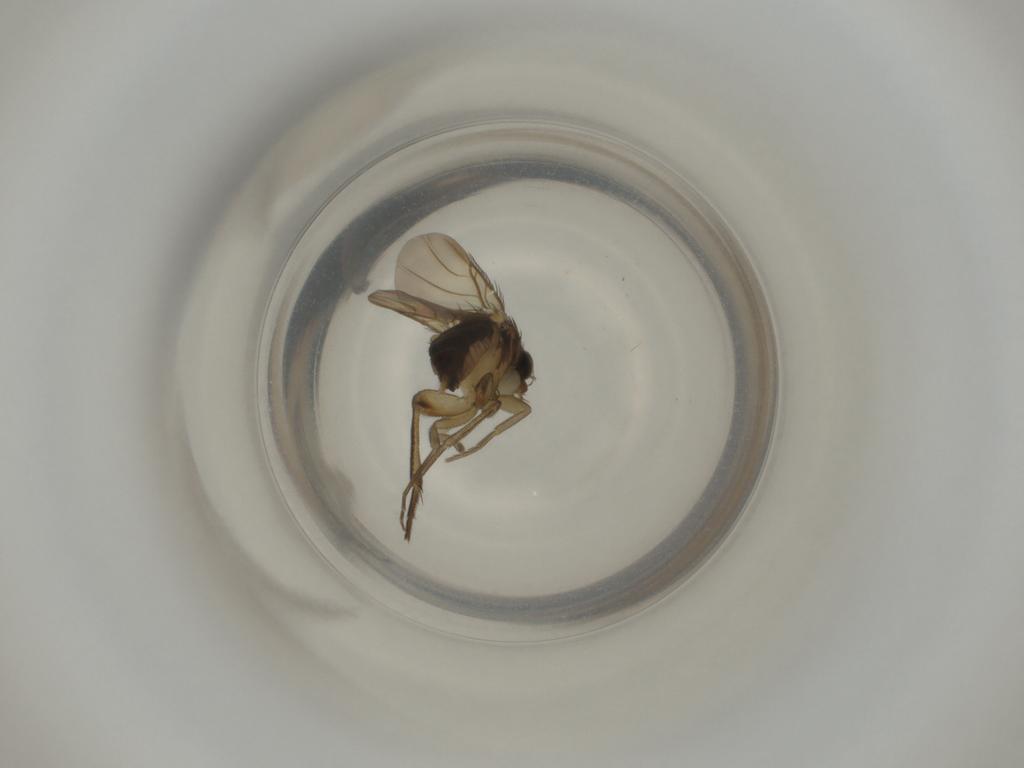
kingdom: Animalia
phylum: Arthropoda
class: Insecta
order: Diptera
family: Phoridae
